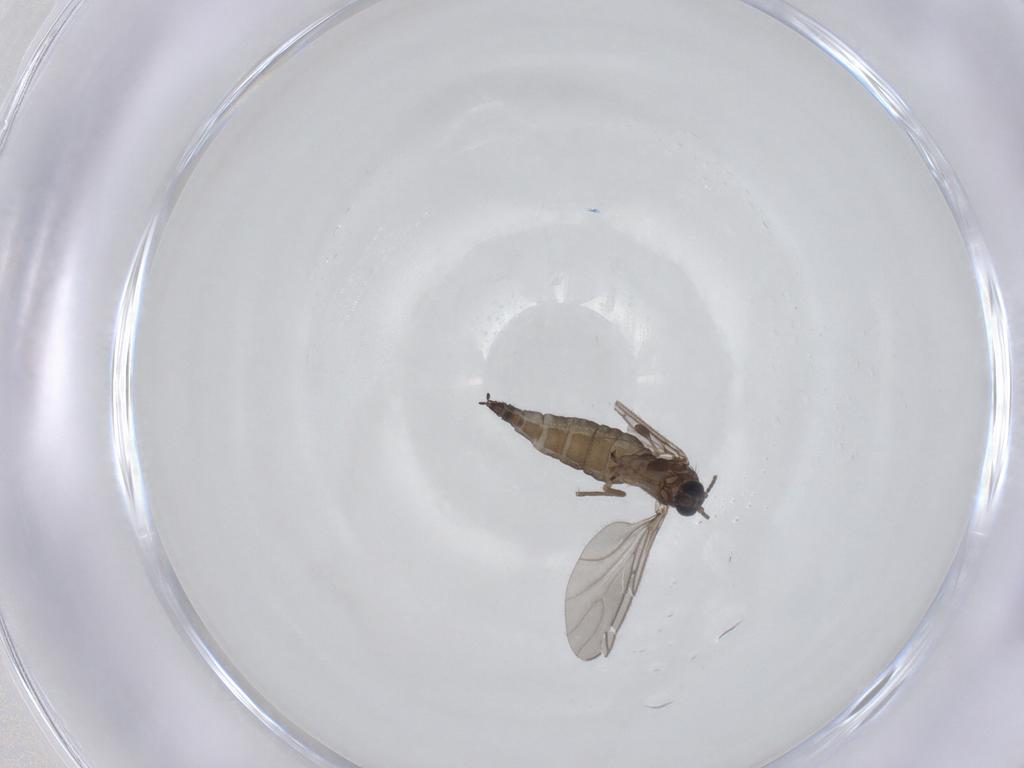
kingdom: Animalia
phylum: Arthropoda
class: Insecta
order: Diptera
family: Sciaridae
